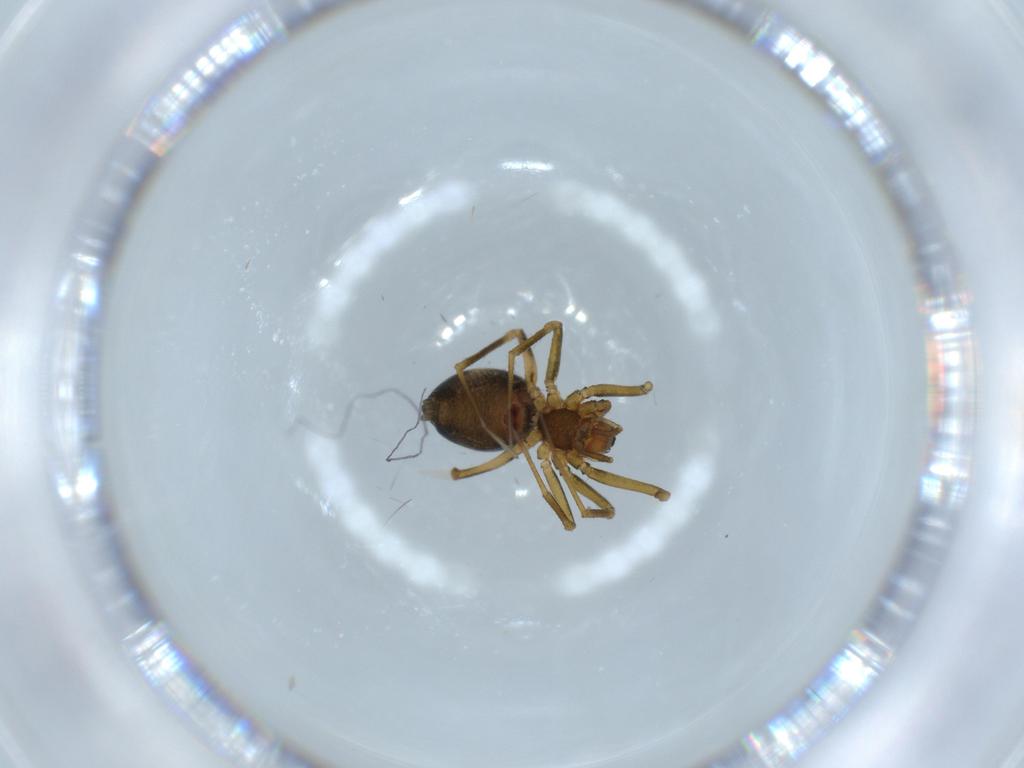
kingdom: Animalia
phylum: Arthropoda
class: Arachnida
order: Araneae
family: Linyphiidae
